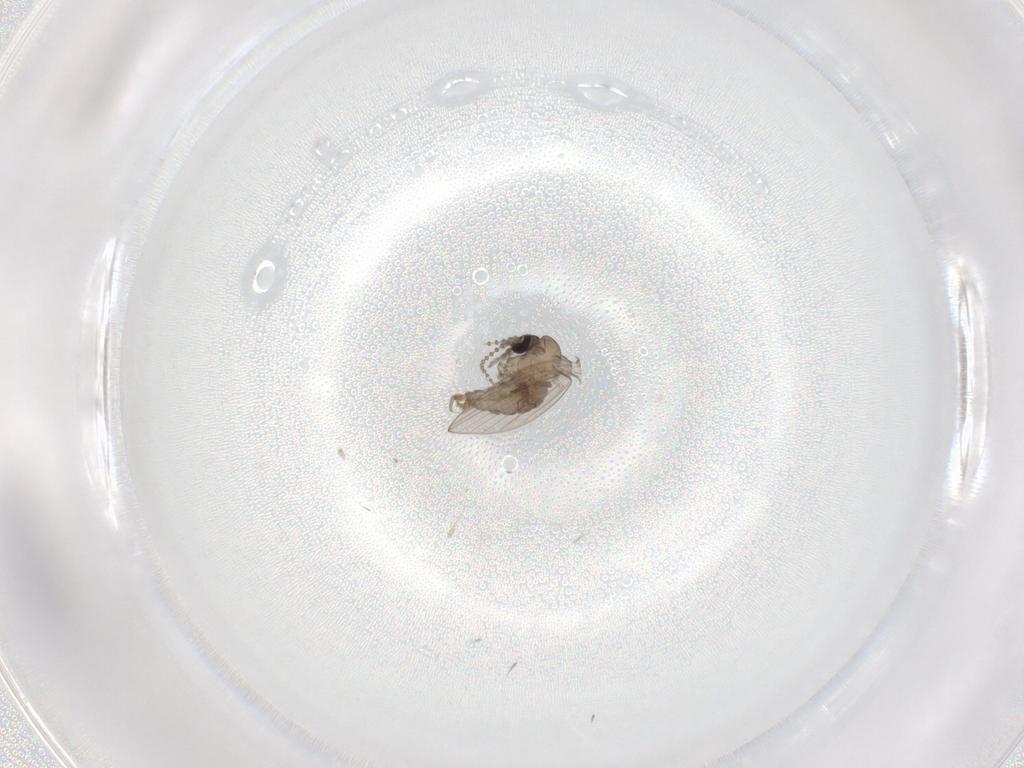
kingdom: Animalia
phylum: Arthropoda
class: Insecta
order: Diptera
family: Psychodidae
